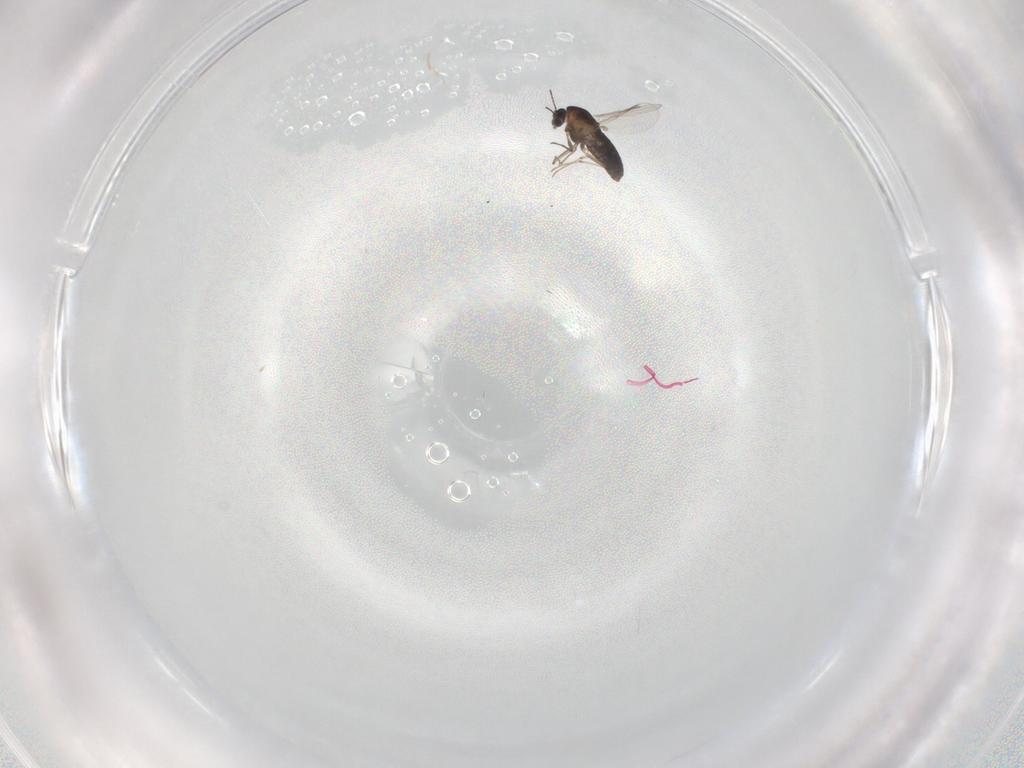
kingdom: Animalia
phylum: Arthropoda
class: Insecta
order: Diptera
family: Chironomidae
